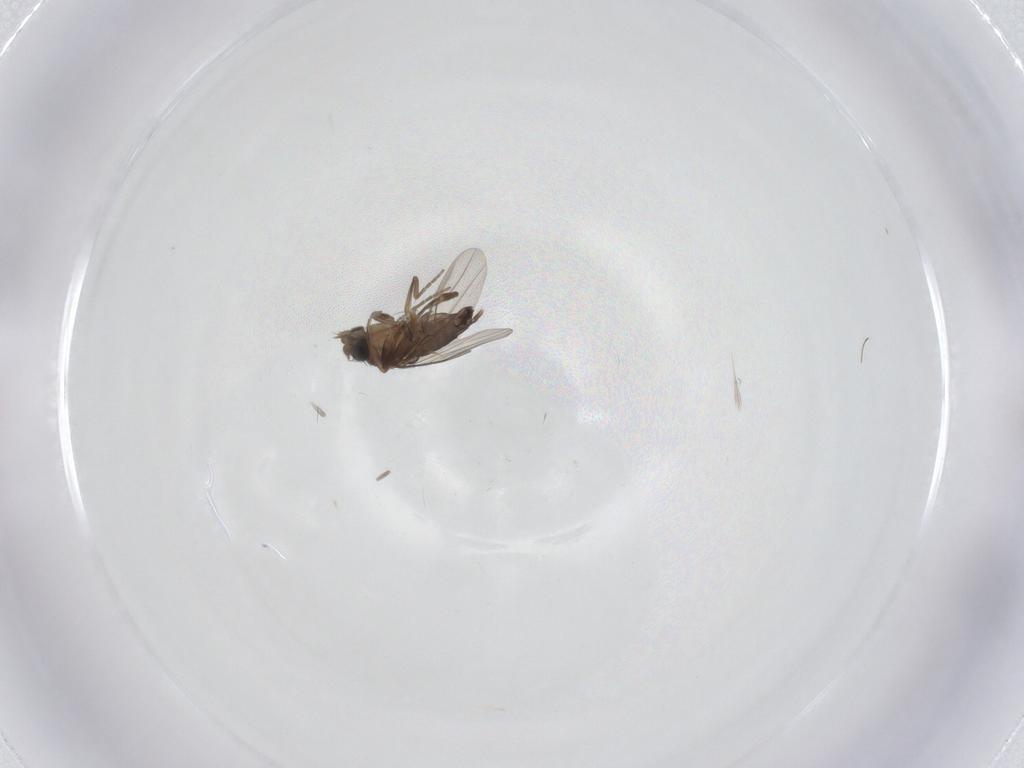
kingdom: Animalia
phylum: Arthropoda
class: Insecta
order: Diptera
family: Phoridae
